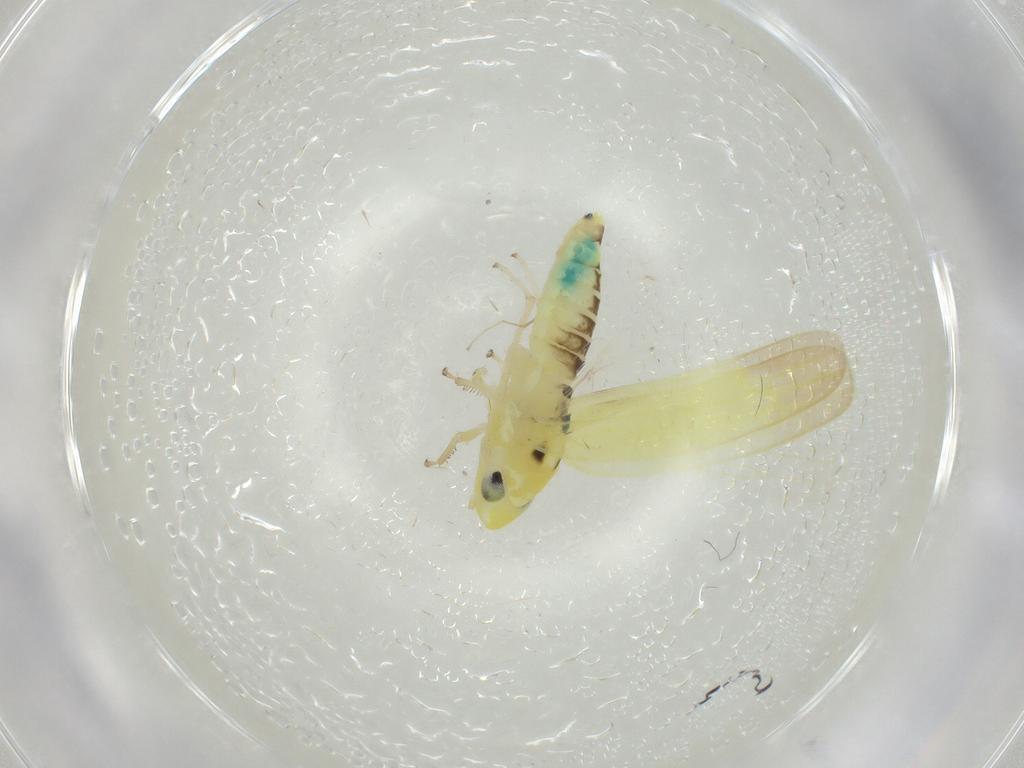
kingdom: Animalia
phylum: Arthropoda
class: Insecta
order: Hemiptera
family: Cicadellidae
